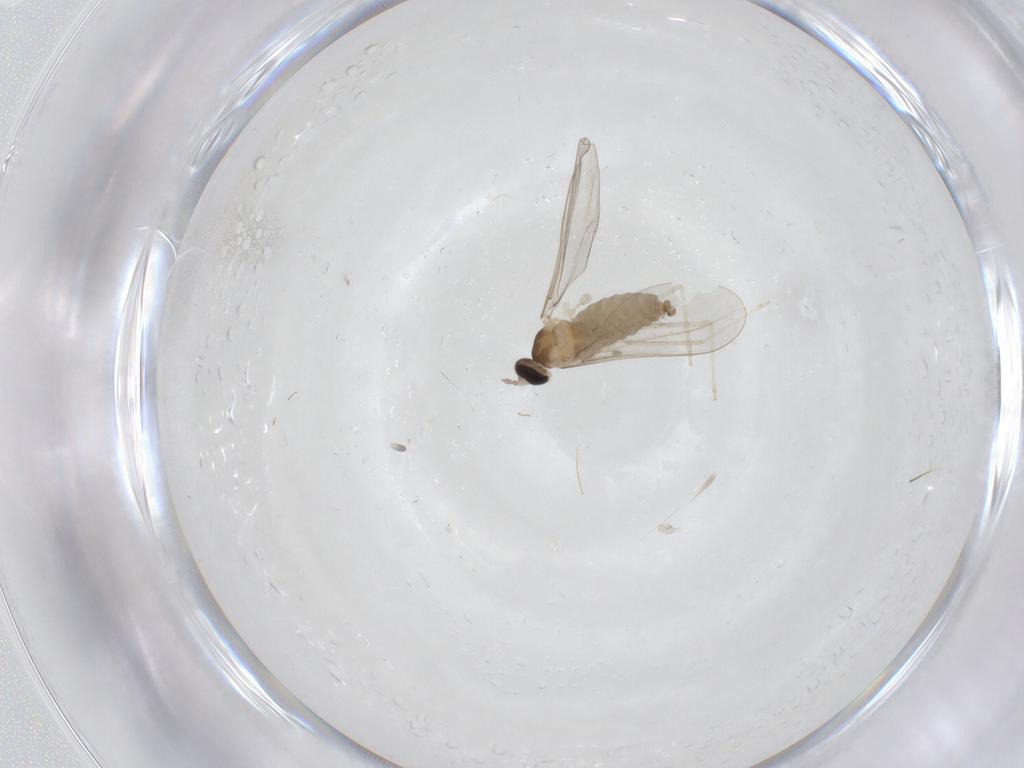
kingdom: Animalia
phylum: Arthropoda
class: Insecta
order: Diptera
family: Cecidomyiidae
